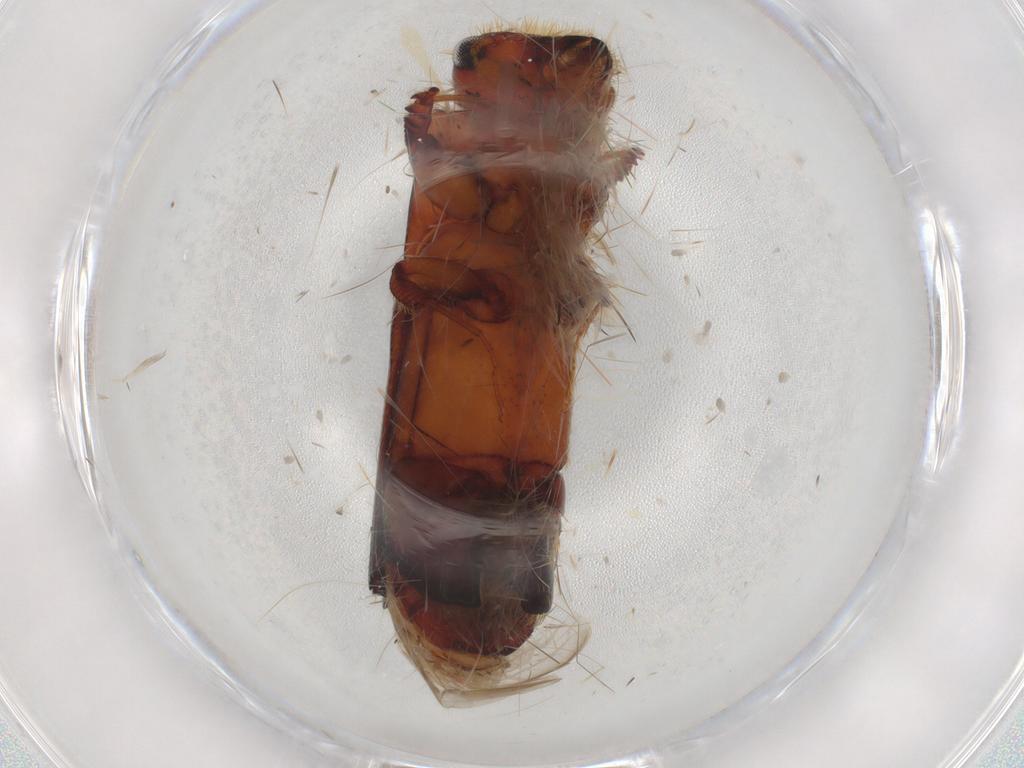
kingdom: Animalia
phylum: Arthropoda
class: Insecta
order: Coleoptera
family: Curculionidae
